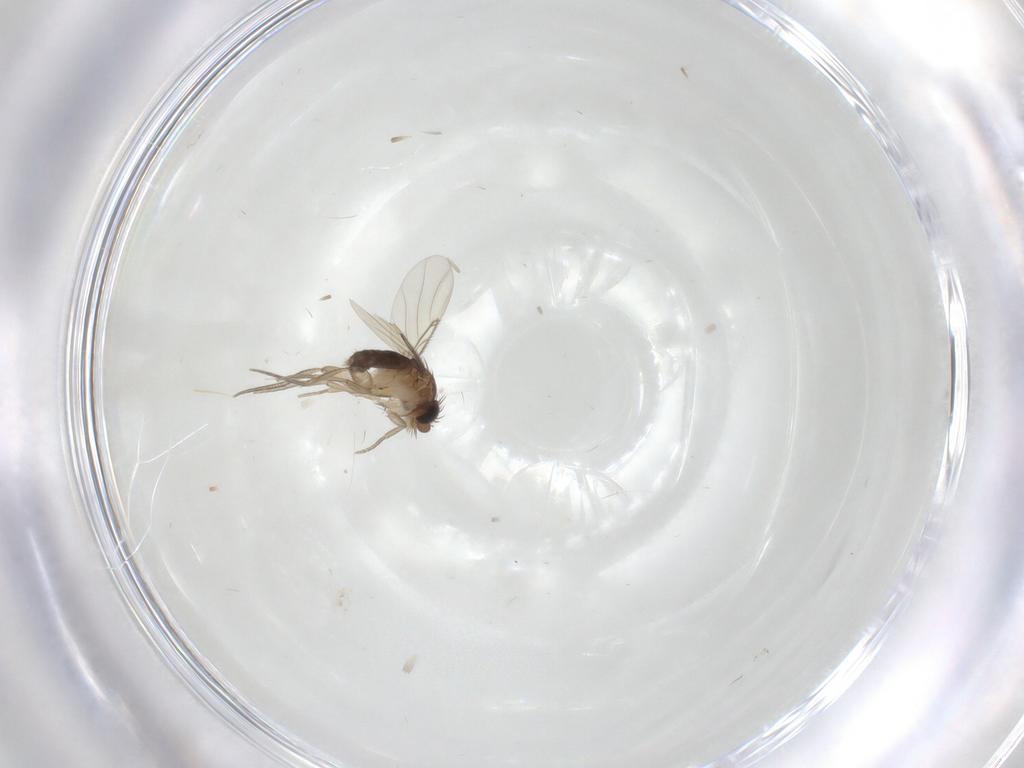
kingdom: Animalia
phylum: Arthropoda
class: Insecta
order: Diptera
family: Phoridae
